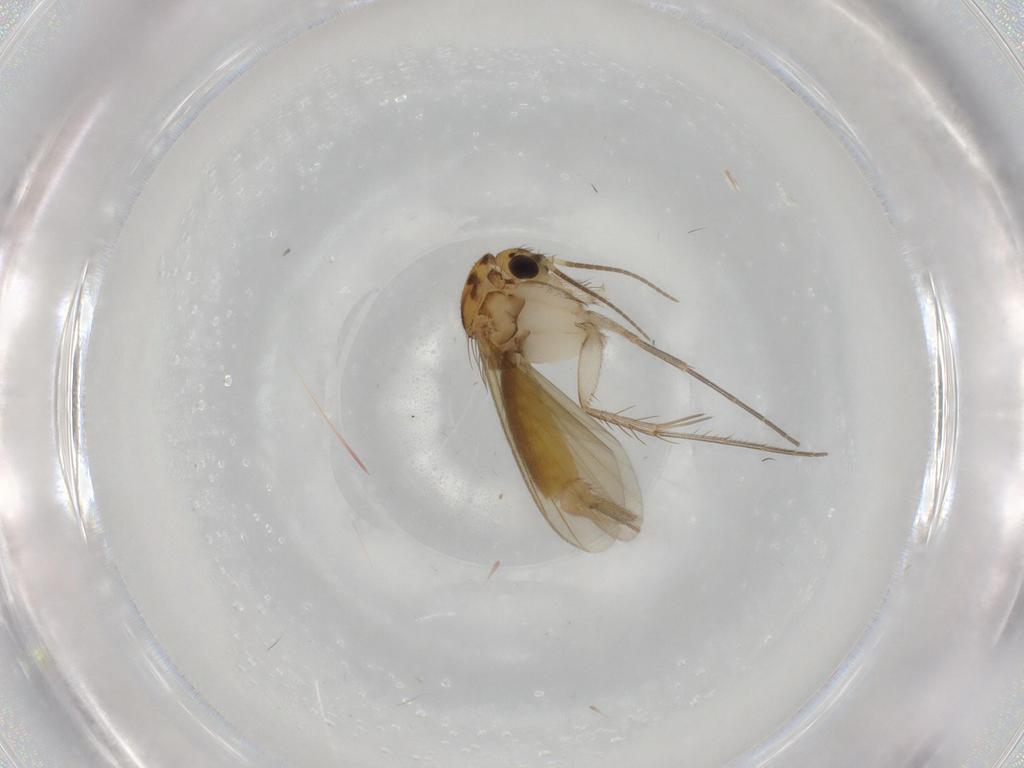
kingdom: Animalia
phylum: Arthropoda
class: Insecta
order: Diptera
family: Mycetophilidae
